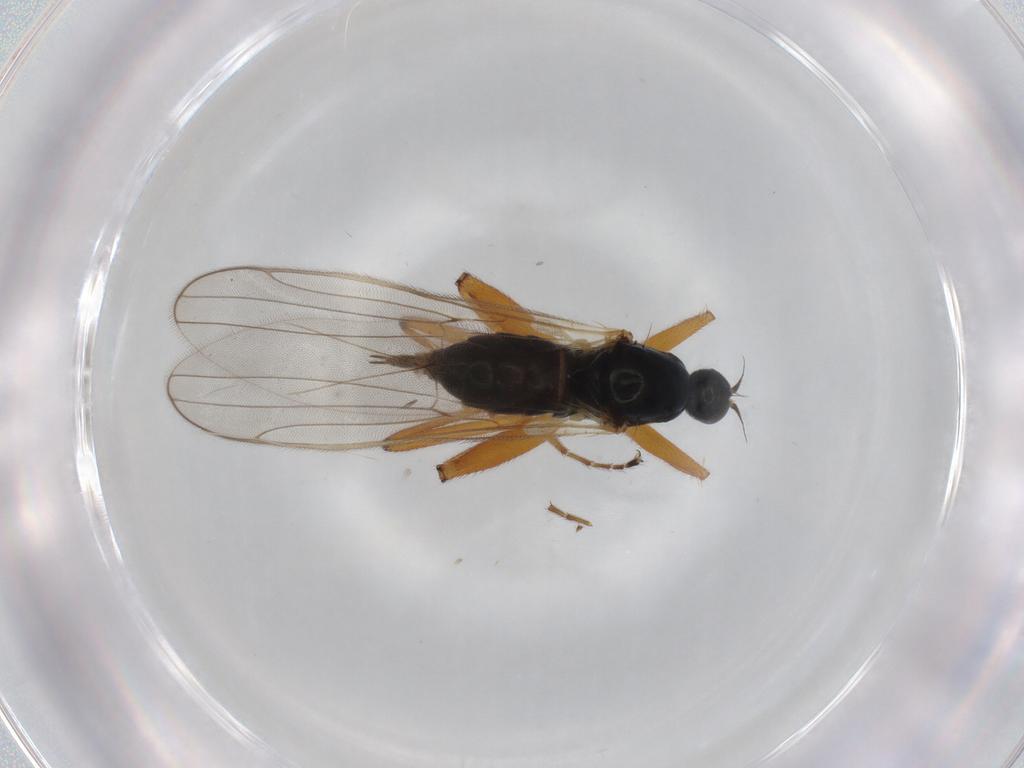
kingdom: Animalia
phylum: Arthropoda
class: Insecta
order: Diptera
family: Hybotidae
